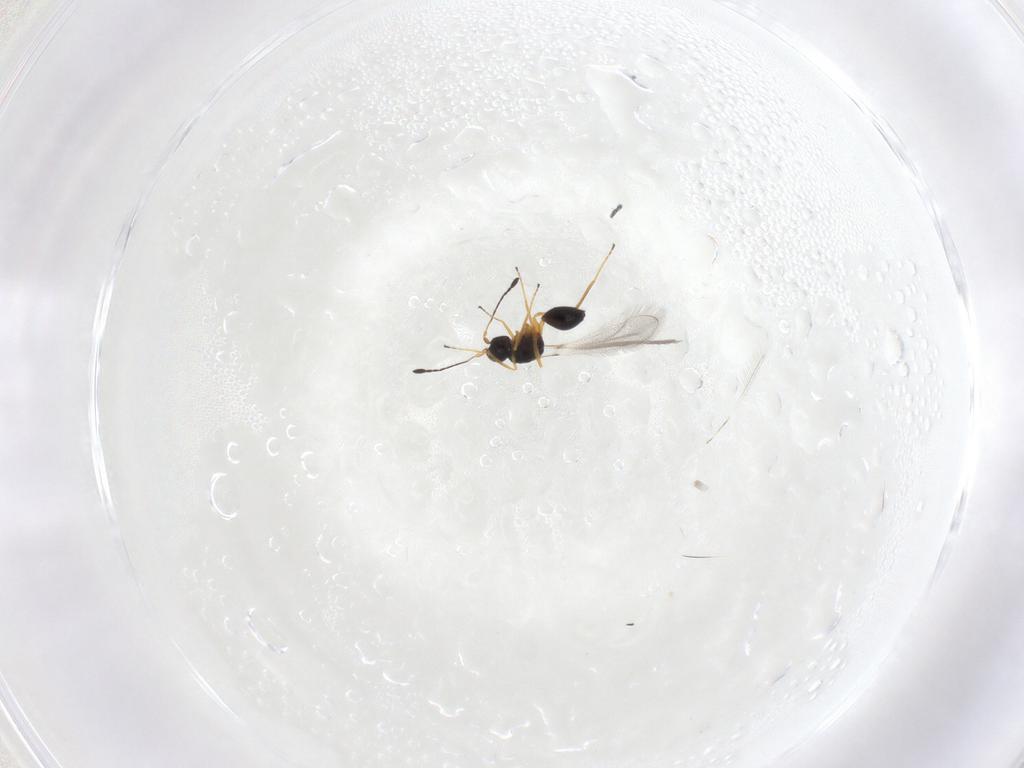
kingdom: Animalia
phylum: Arthropoda
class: Insecta
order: Hymenoptera
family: Mymaridae
